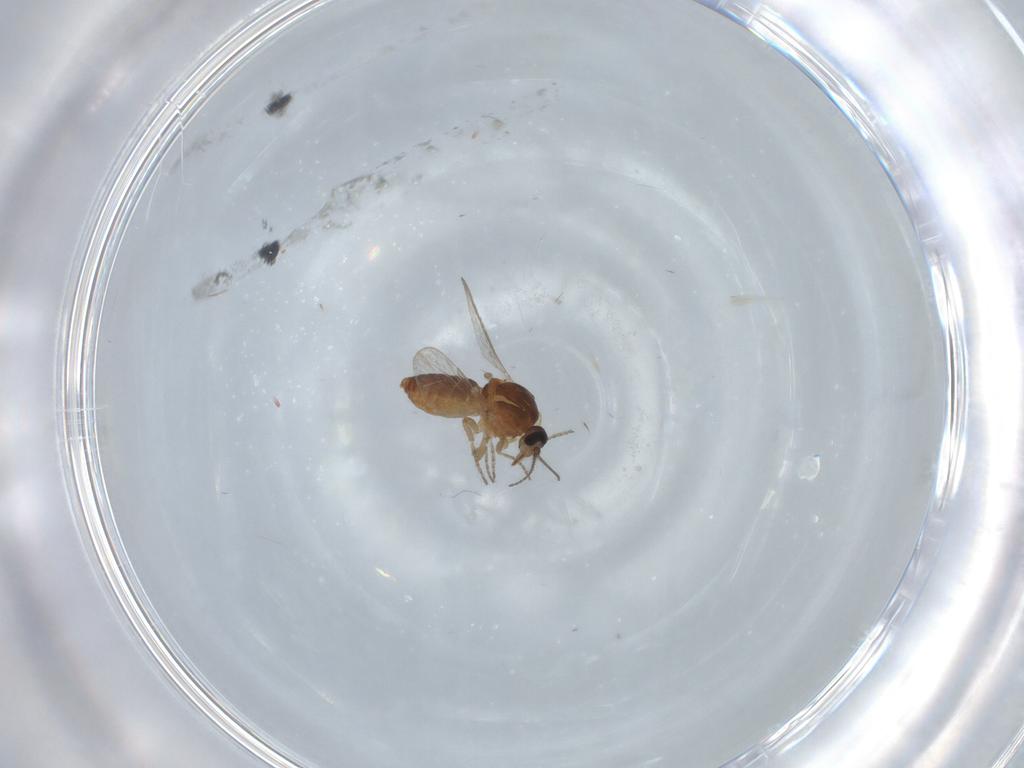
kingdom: Animalia
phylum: Arthropoda
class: Insecta
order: Diptera
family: Ceratopogonidae
